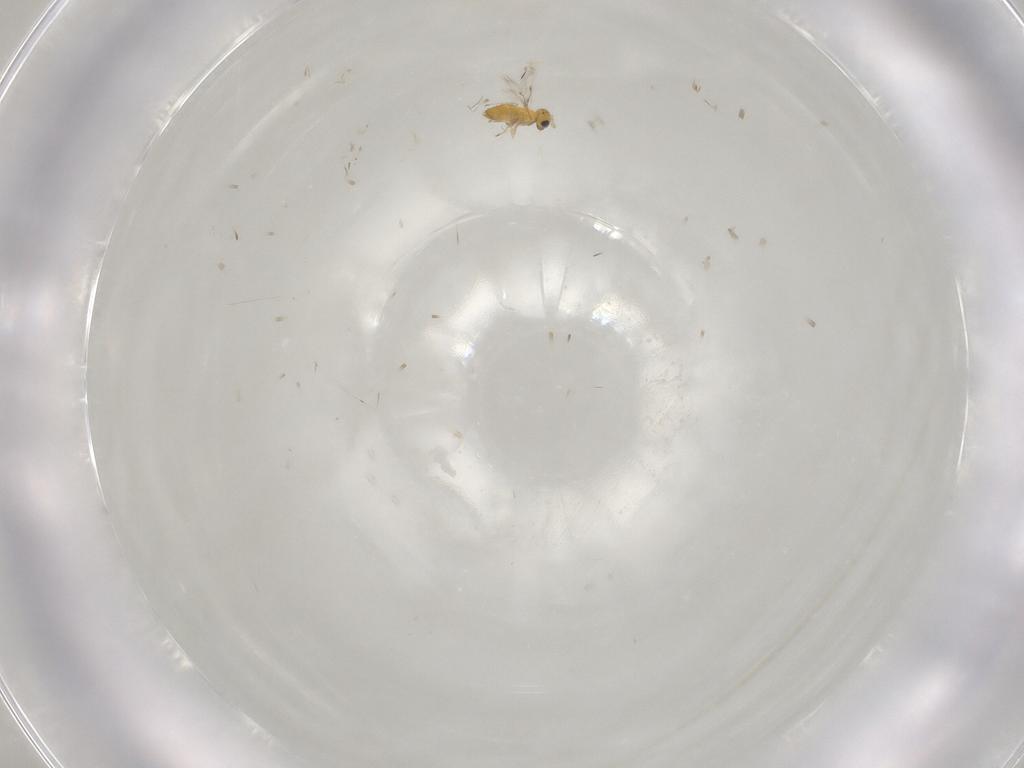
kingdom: Animalia
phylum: Arthropoda
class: Insecta
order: Hymenoptera
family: Trichogrammatidae
